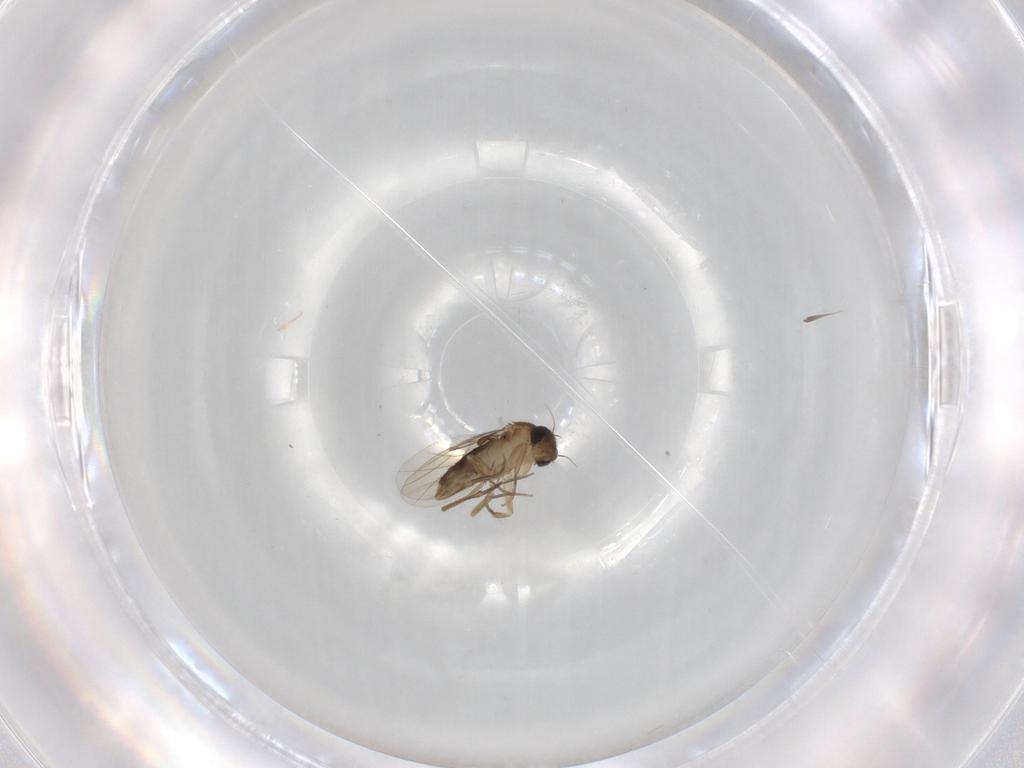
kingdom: Animalia
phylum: Arthropoda
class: Insecta
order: Diptera
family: Phoridae
